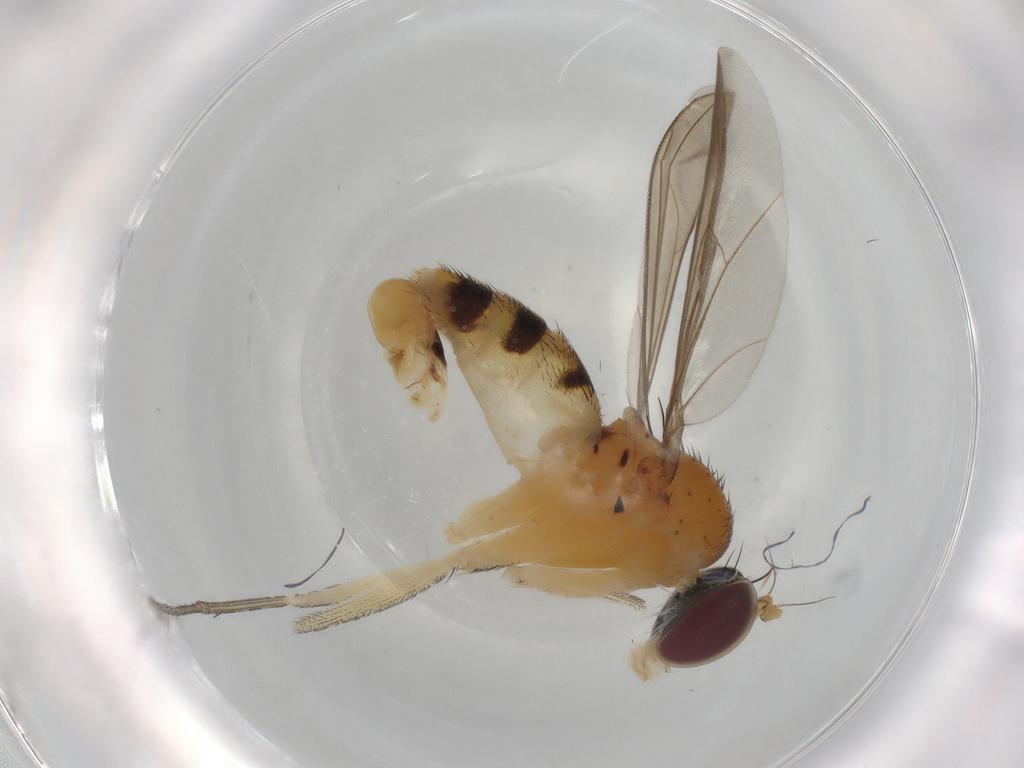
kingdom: Animalia
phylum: Arthropoda
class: Insecta
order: Diptera
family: Dolichopodidae
